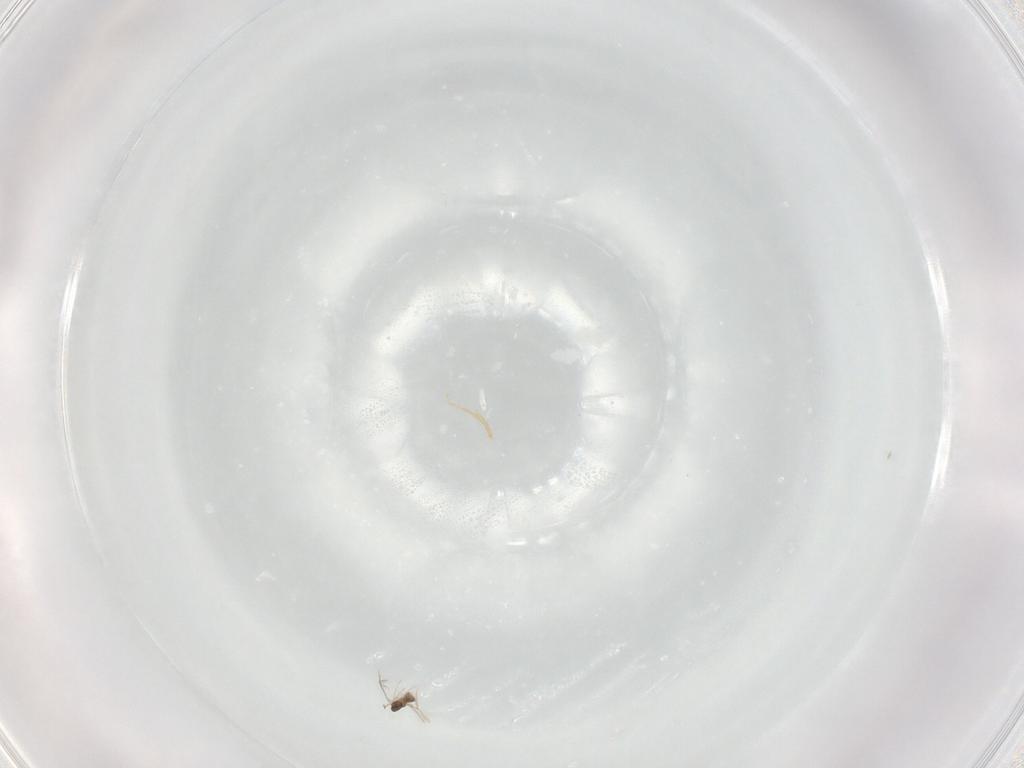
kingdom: Animalia
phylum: Arthropoda
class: Insecta
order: Hymenoptera
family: Mymaridae
